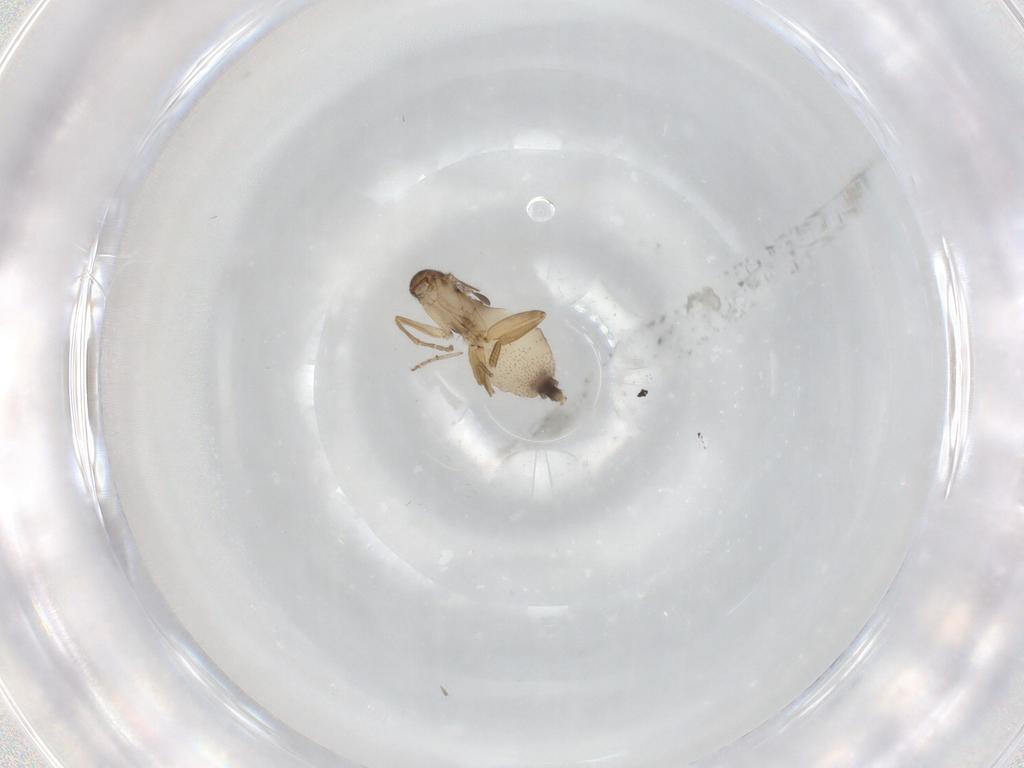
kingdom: Animalia
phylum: Arthropoda
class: Insecta
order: Diptera
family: Phoridae
